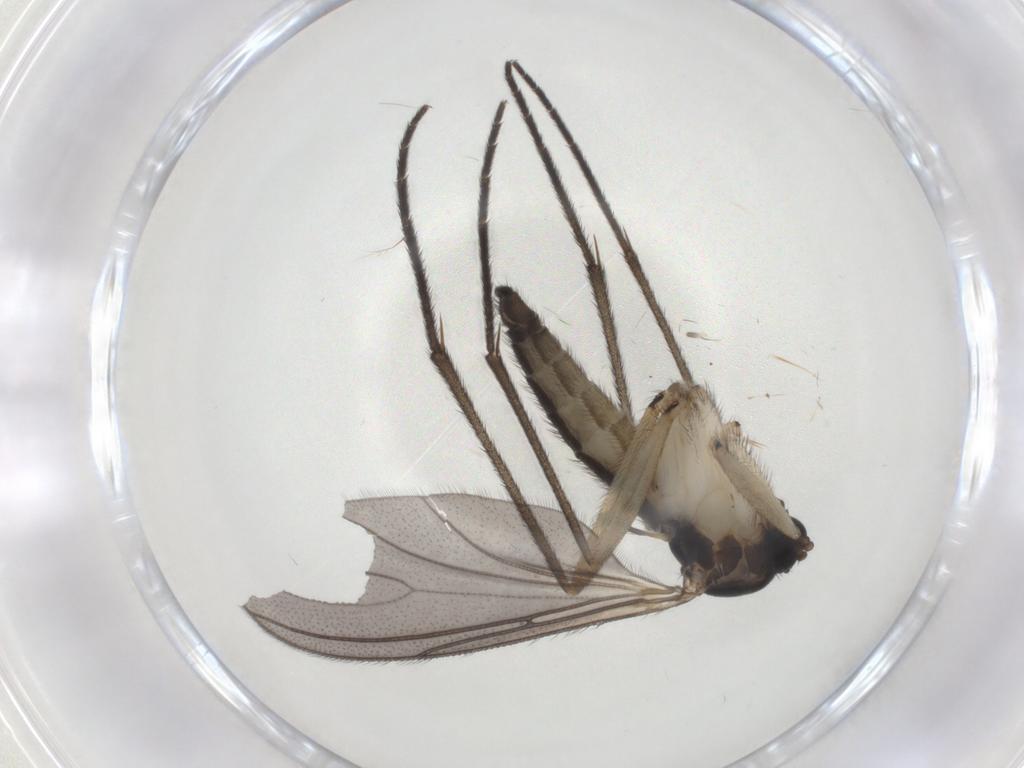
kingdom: Animalia
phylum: Arthropoda
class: Insecta
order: Diptera
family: Sciaridae
